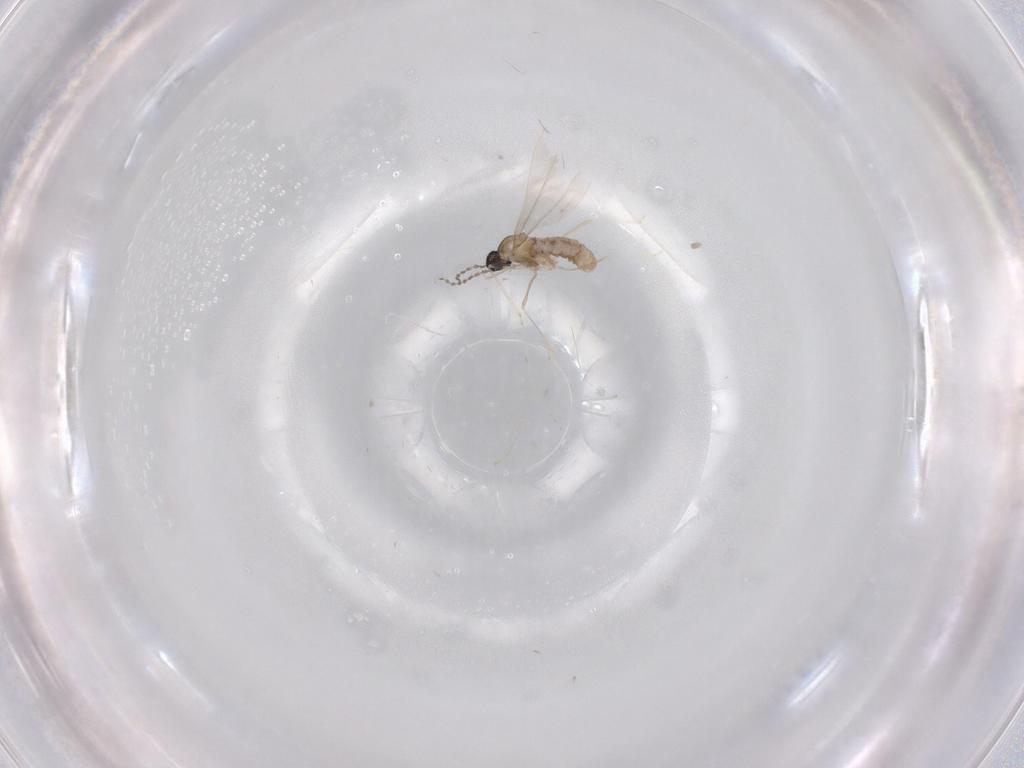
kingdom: Animalia
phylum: Arthropoda
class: Insecta
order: Diptera
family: Cecidomyiidae
